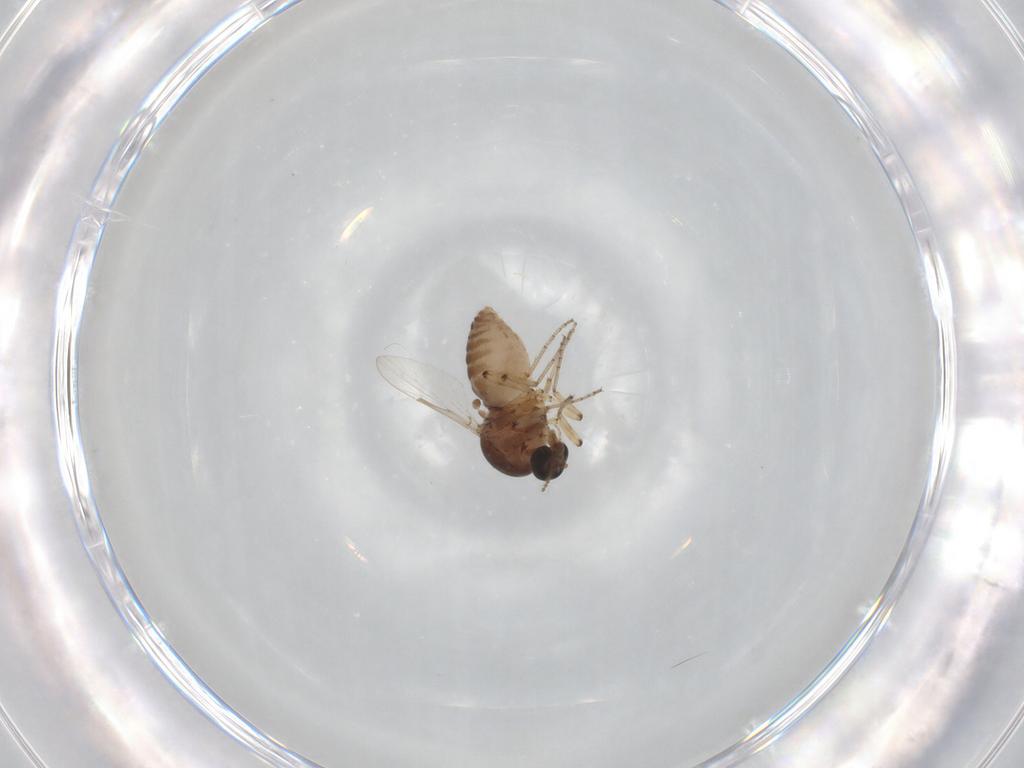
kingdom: Animalia
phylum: Arthropoda
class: Insecta
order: Diptera
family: Ceratopogonidae
